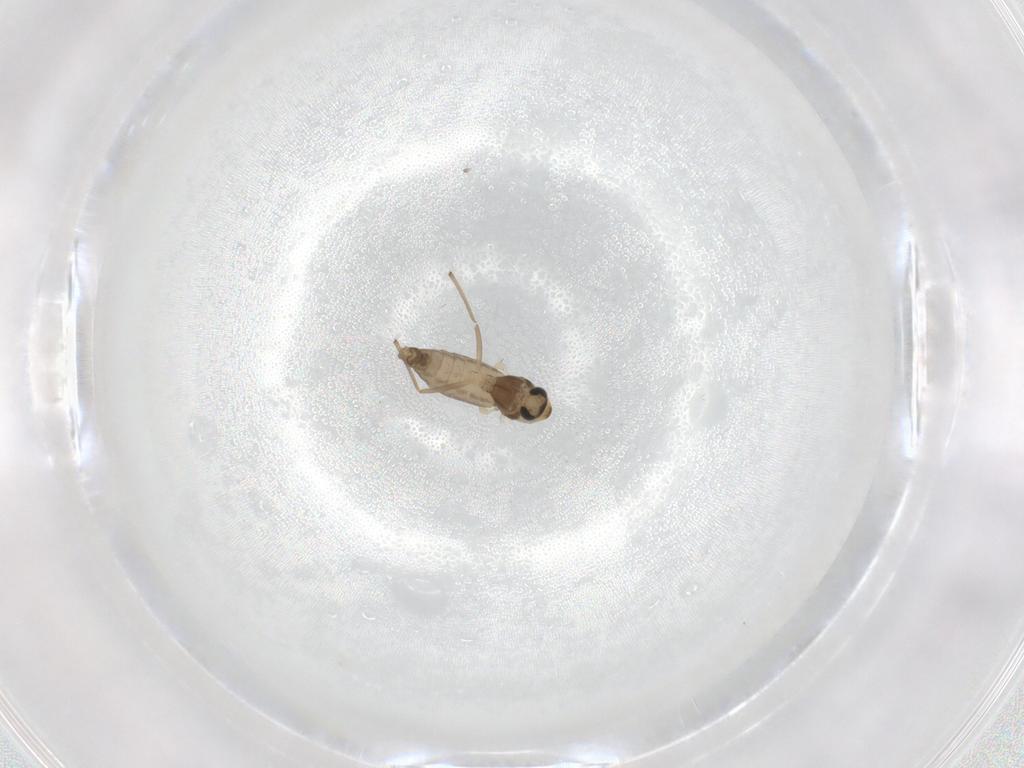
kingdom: Animalia
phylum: Arthropoda
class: Insecta
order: Diptera
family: Chironomidae
